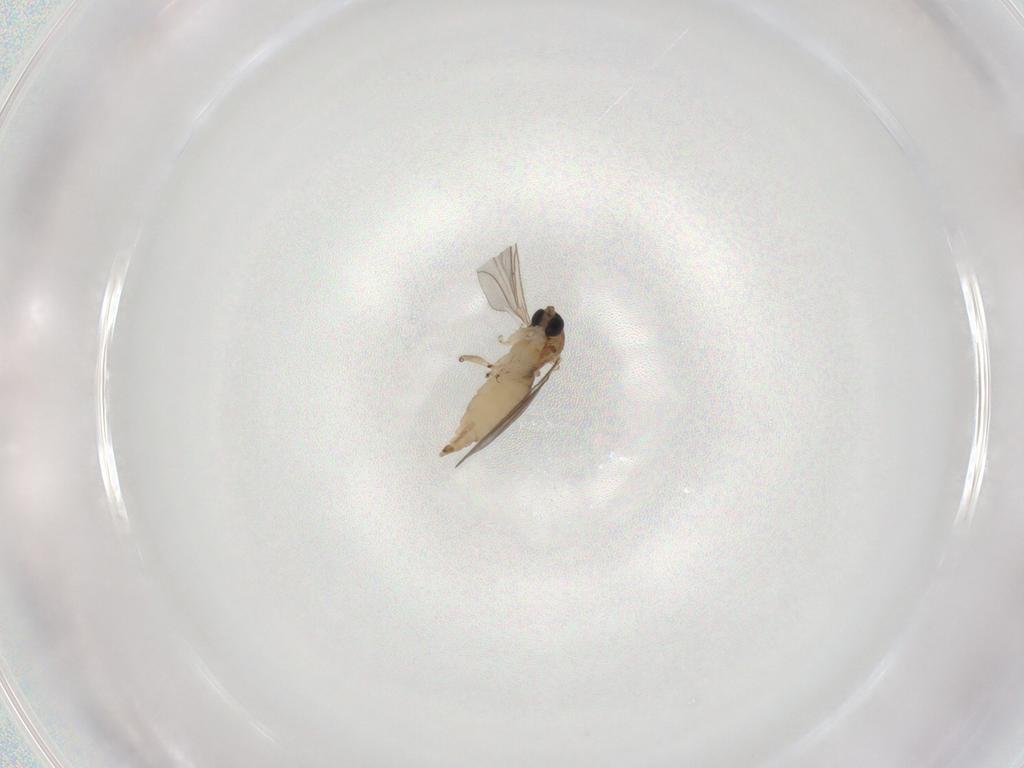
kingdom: Animalia
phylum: Arthropoda
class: Insecta
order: Diptera
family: Sciaridae
